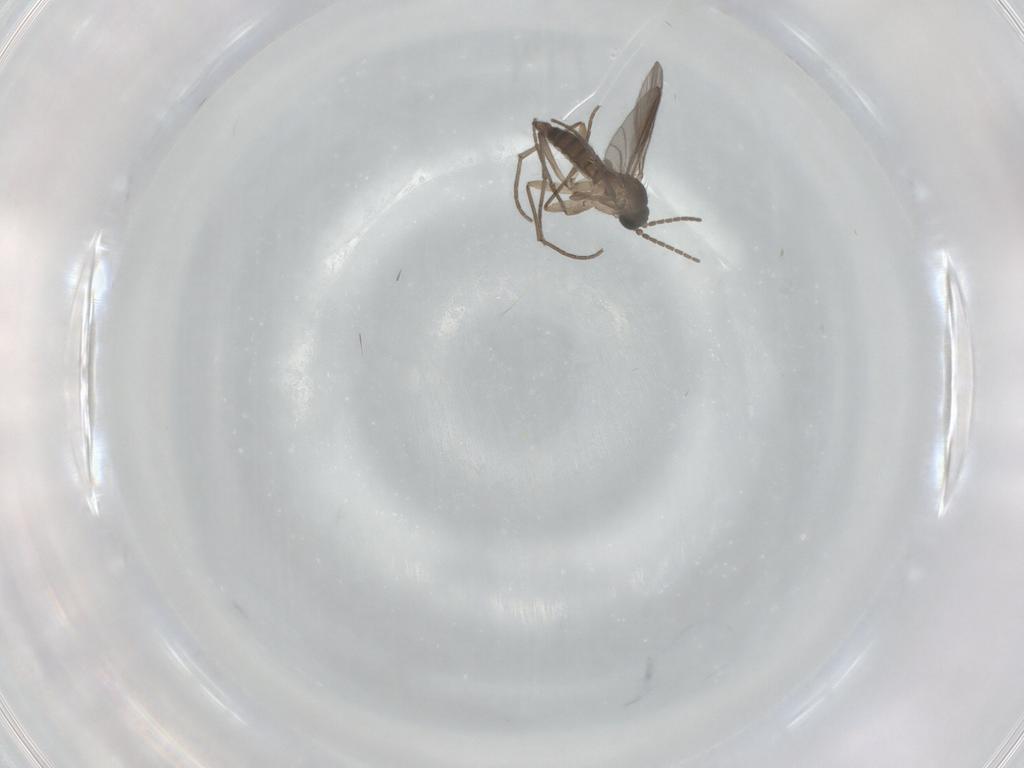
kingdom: Animalia
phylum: Arthropoda
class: Insecta
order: Diptera
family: Sciaridae
